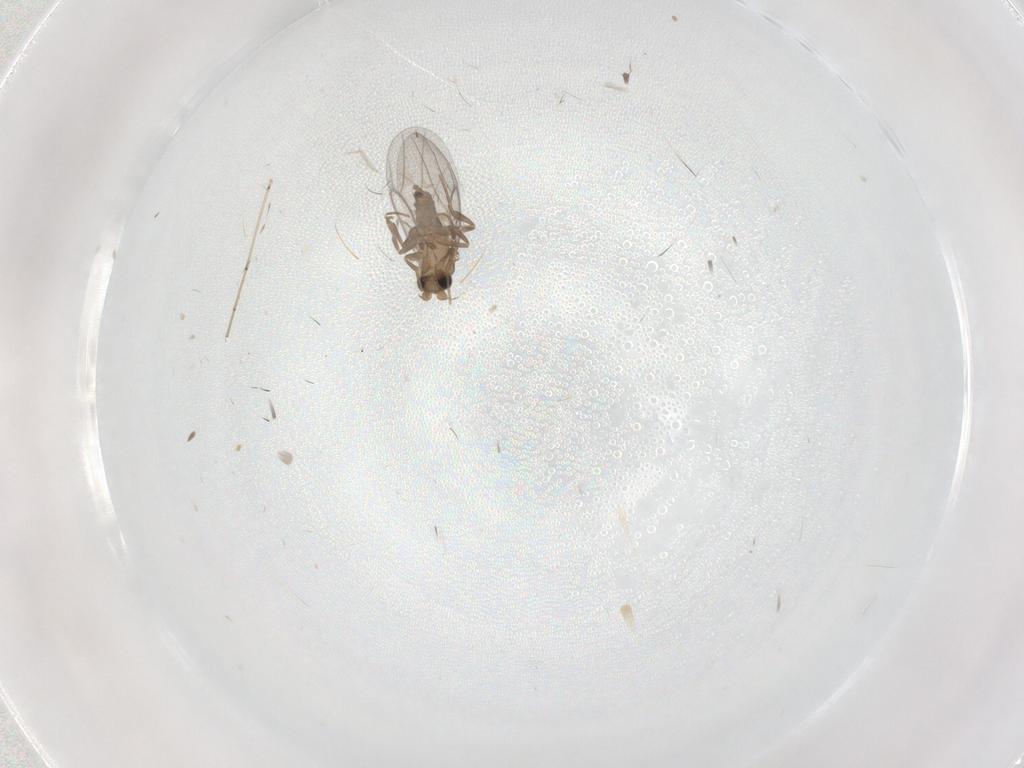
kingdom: Animalia
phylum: Arthropoda
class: Insecta
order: Diptera
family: Cecidomyiidae
